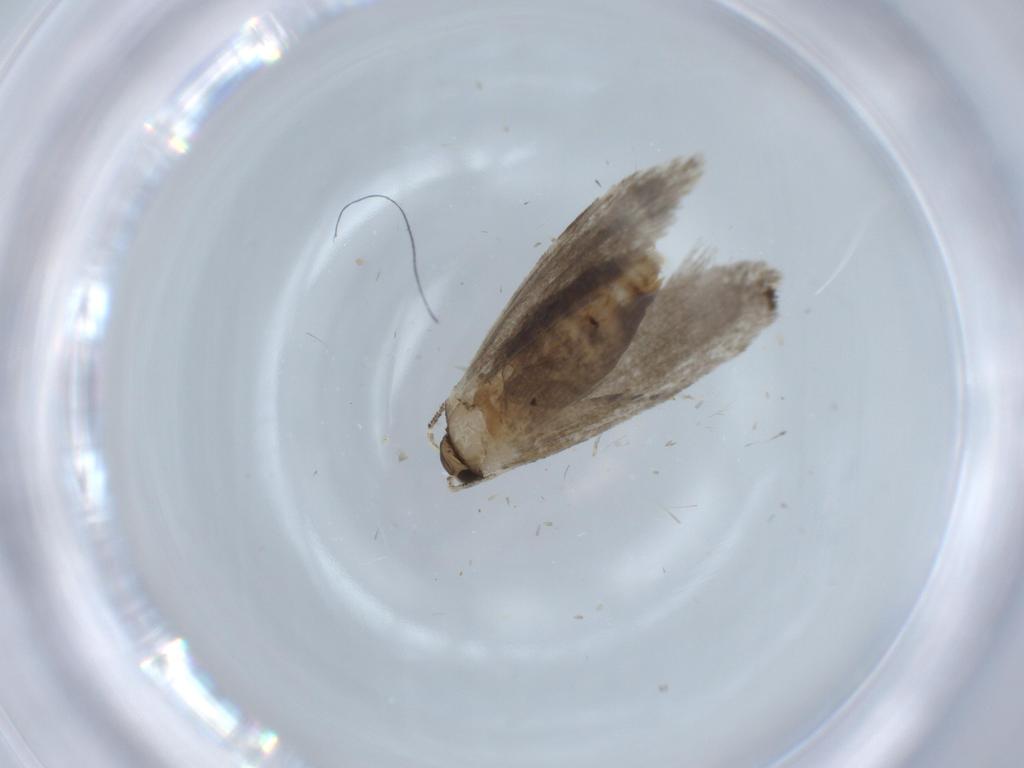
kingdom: Animalia
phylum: Arthropoda
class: Insecta
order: Lepidoptera
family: Tineidae
